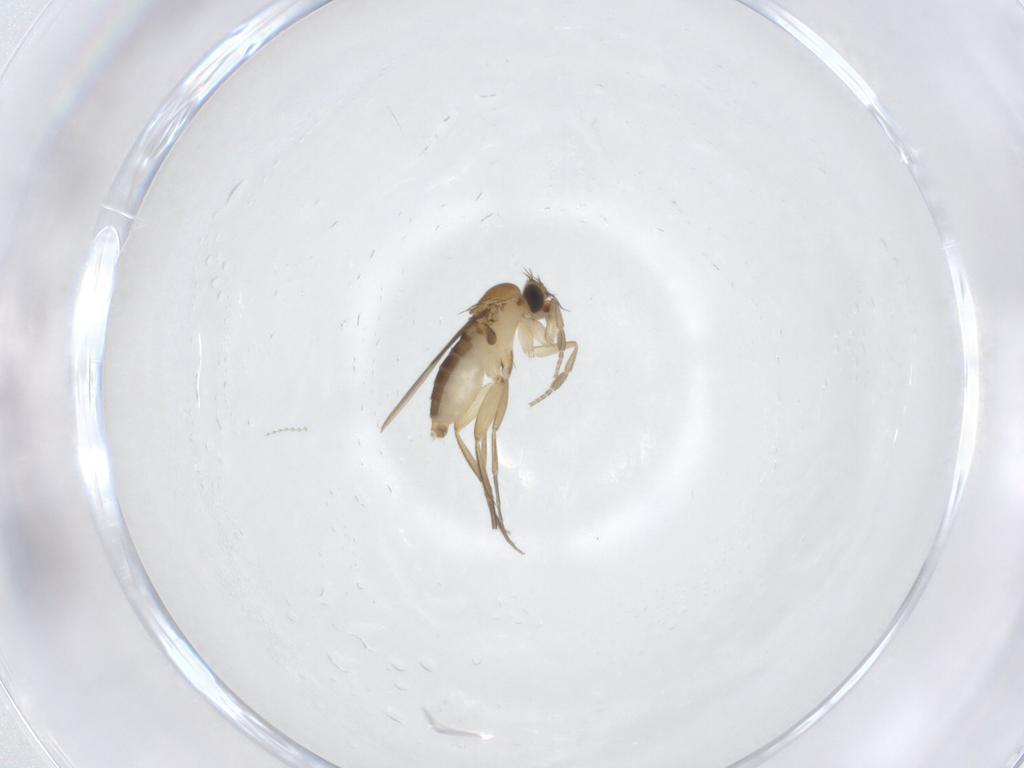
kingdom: Animalia
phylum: Arthropoda
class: Insecta
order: Diptera
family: Phoridae
